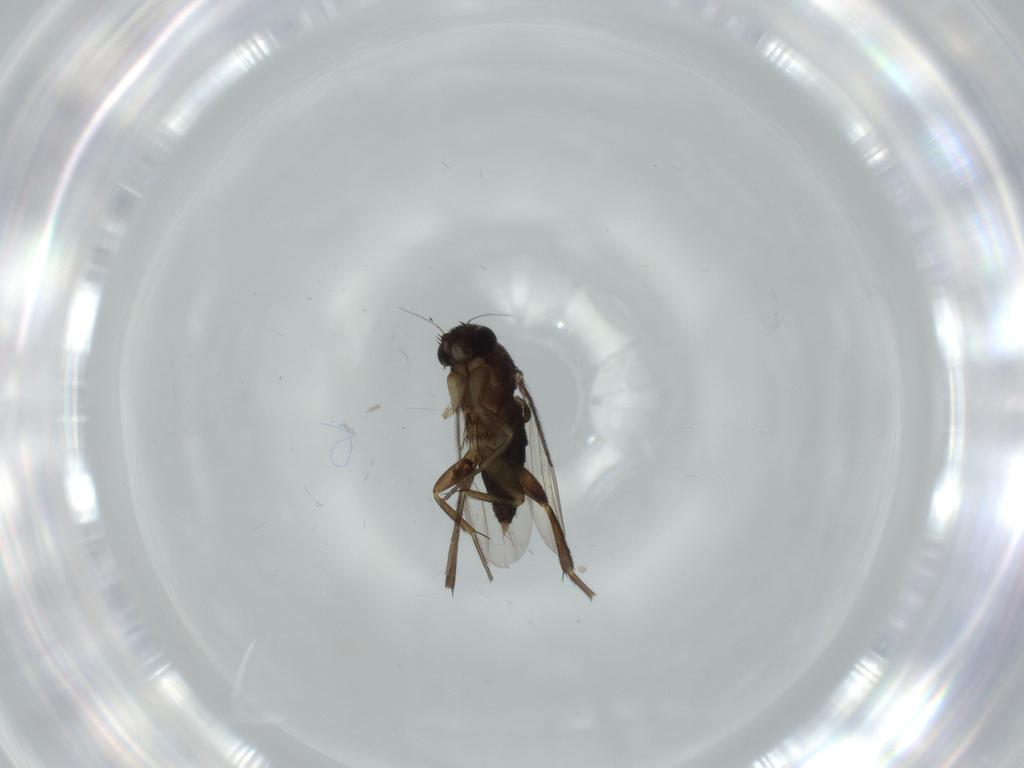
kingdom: Animalia
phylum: Arthropoda
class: Insecta
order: Diptera
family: Phoridae
